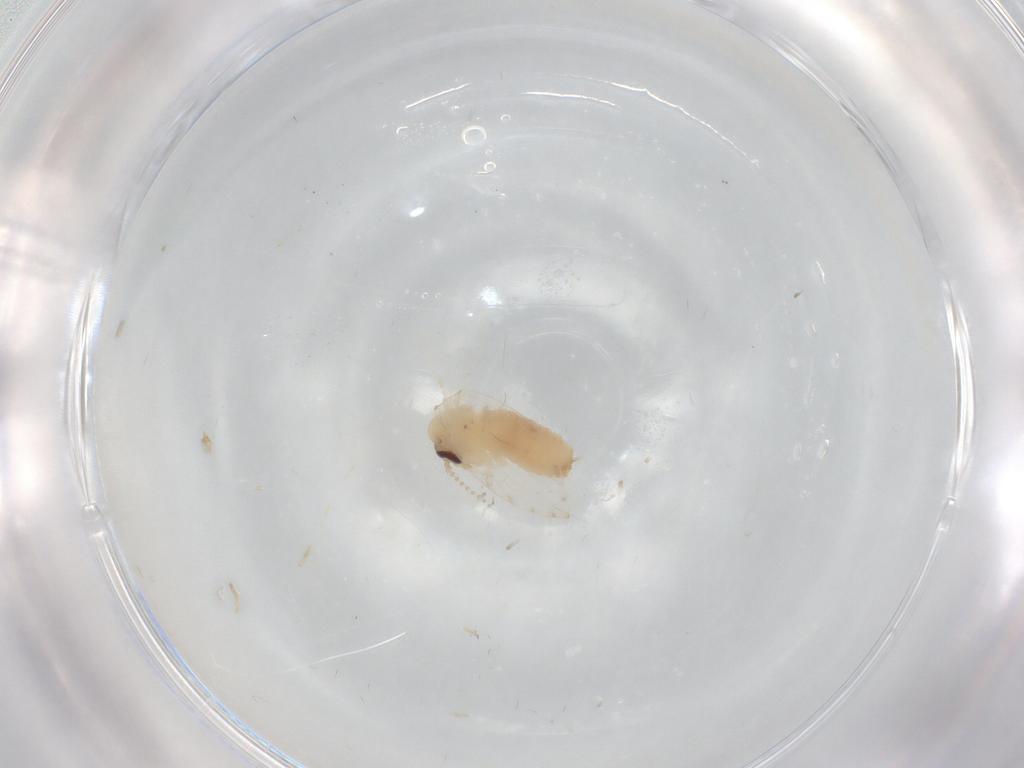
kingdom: Animalia
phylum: Arthropoda
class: Insecta
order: Diptera
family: Psychodidae
